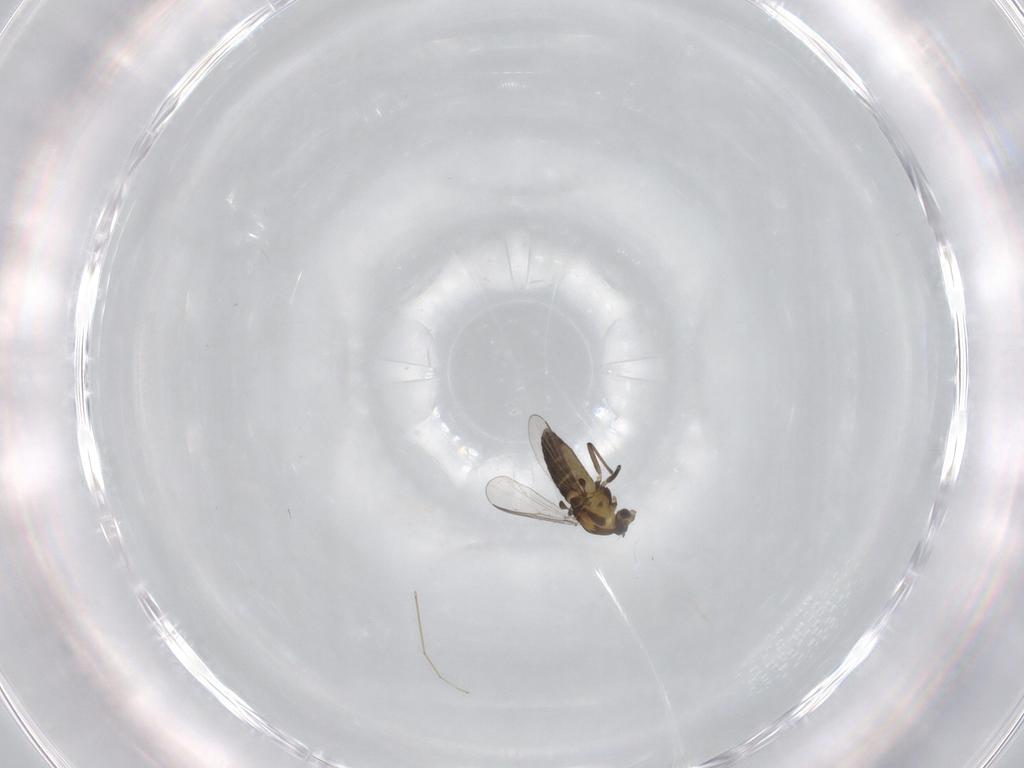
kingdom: Animalia
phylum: Arthropoda
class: Insecta
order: Diptera
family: Chironomidae
